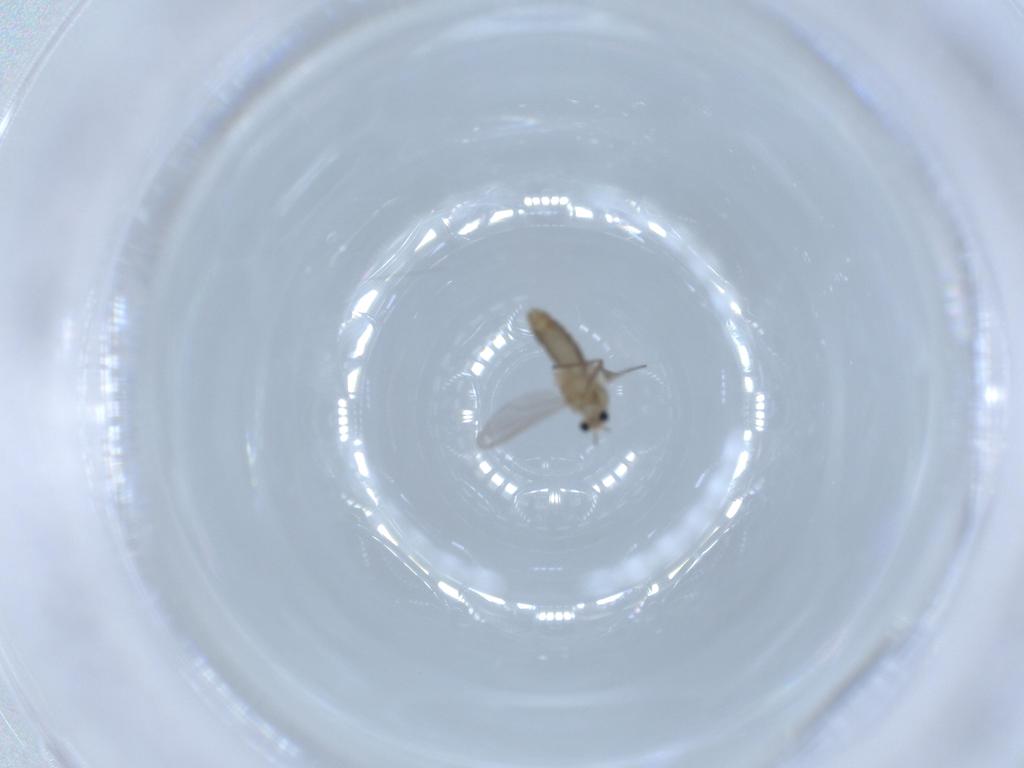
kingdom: Animalia
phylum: Arthropoda
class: Insecta
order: Diptera
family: Chironomidae
